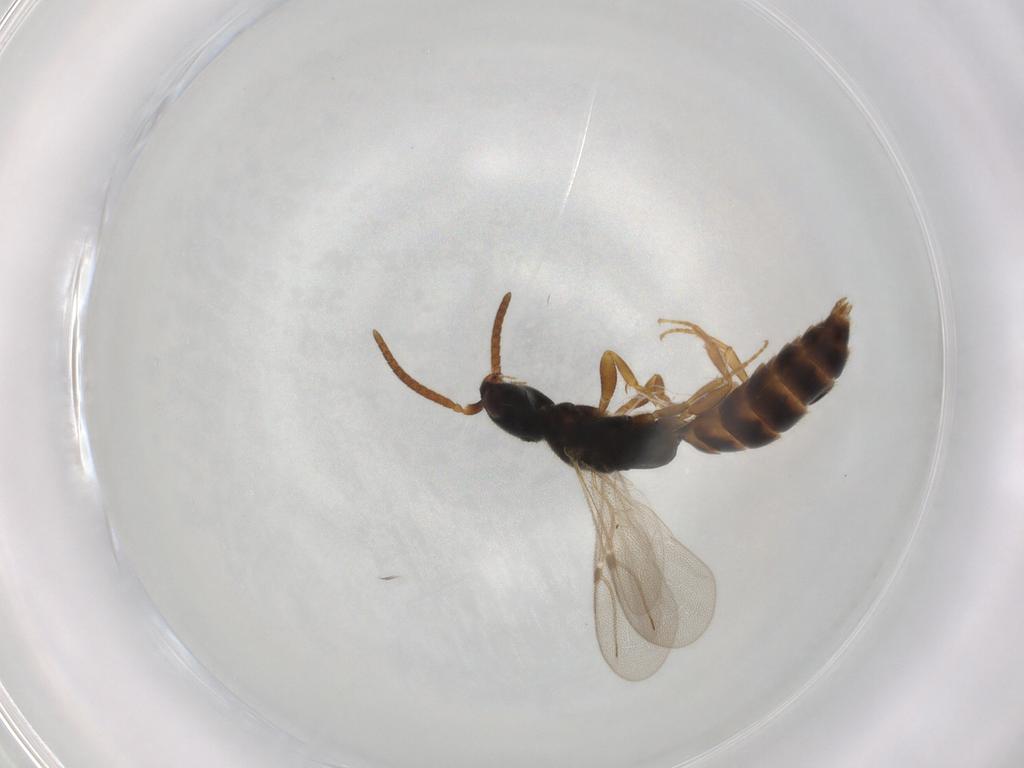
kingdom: Animalia
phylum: Arthropoda
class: Insecta
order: Hymenoptera
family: Bethylidae
